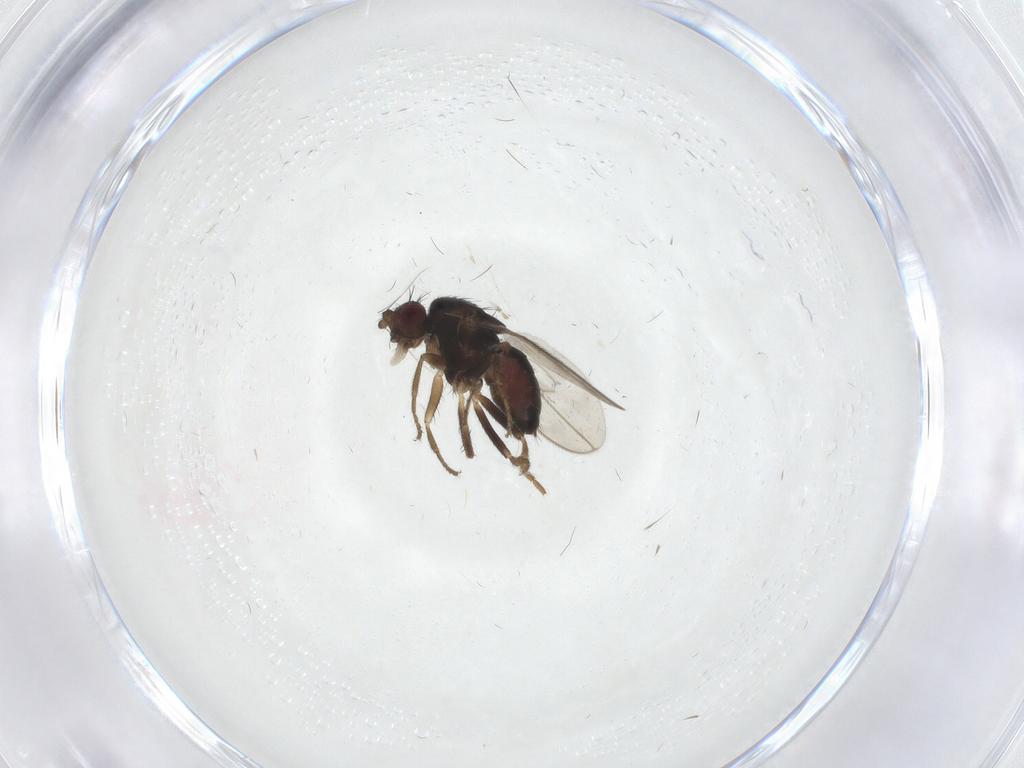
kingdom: Animalia
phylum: Arthropoda
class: Insecta
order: Diptera
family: Sphaeroceridae
